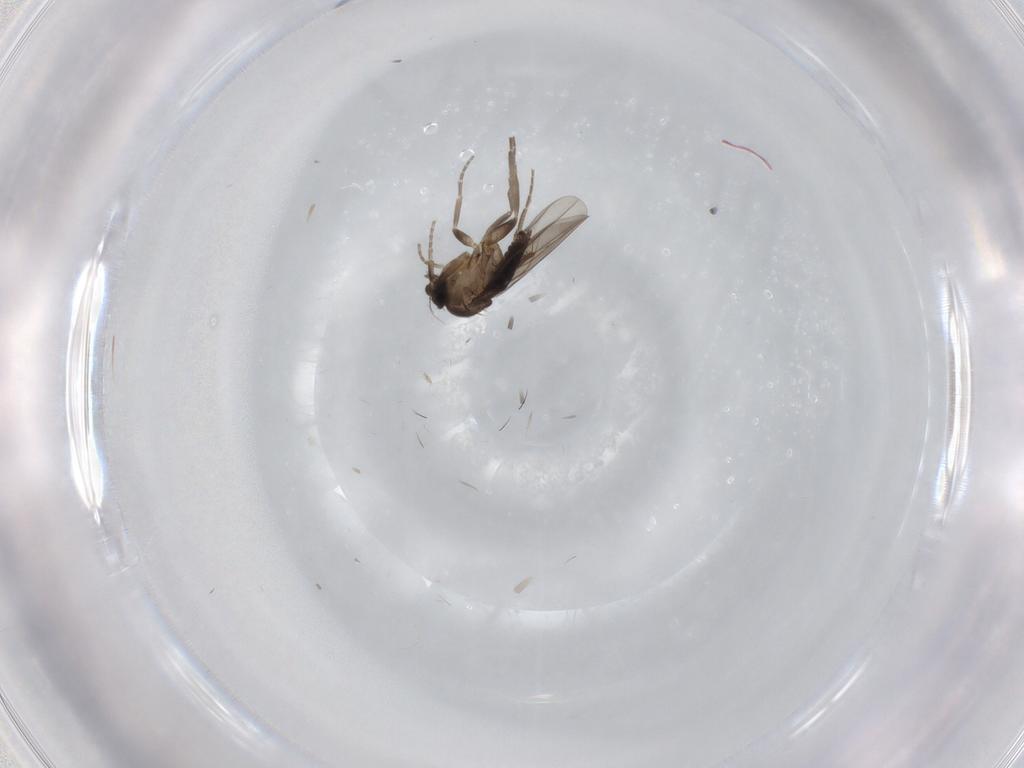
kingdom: Animalia
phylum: Arthropoda
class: Insecta
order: Diptera
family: Phoridae
